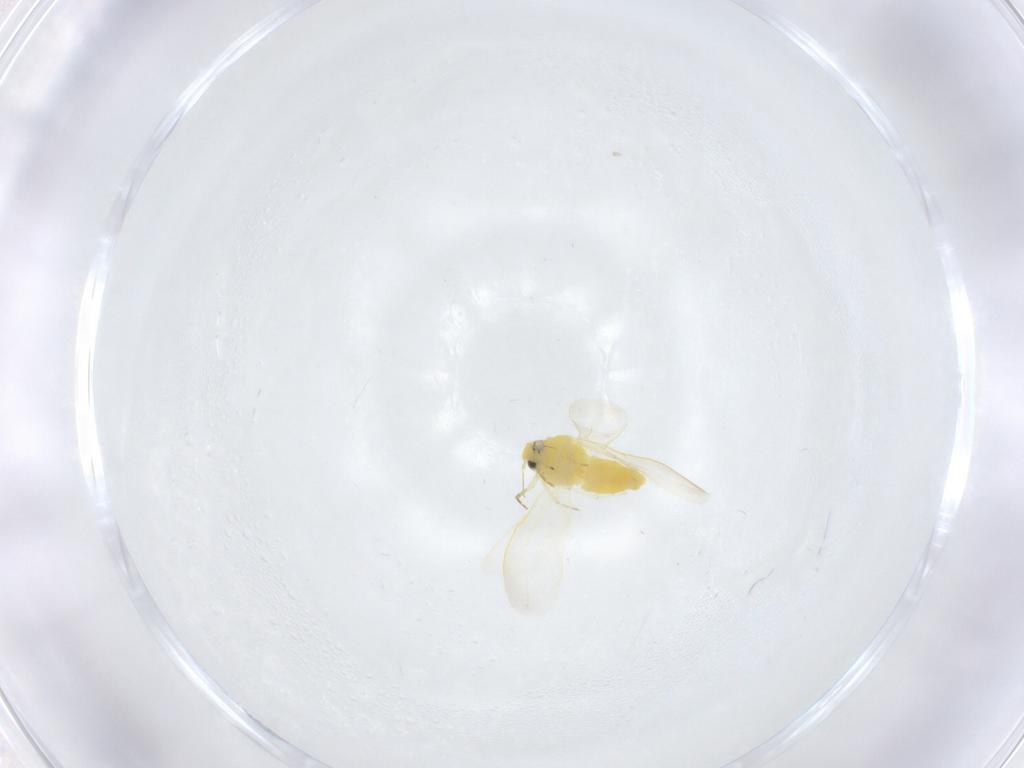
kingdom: Animalia
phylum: Arthropoda
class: Insecta
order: Hemiptera
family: Aleyrodidae
